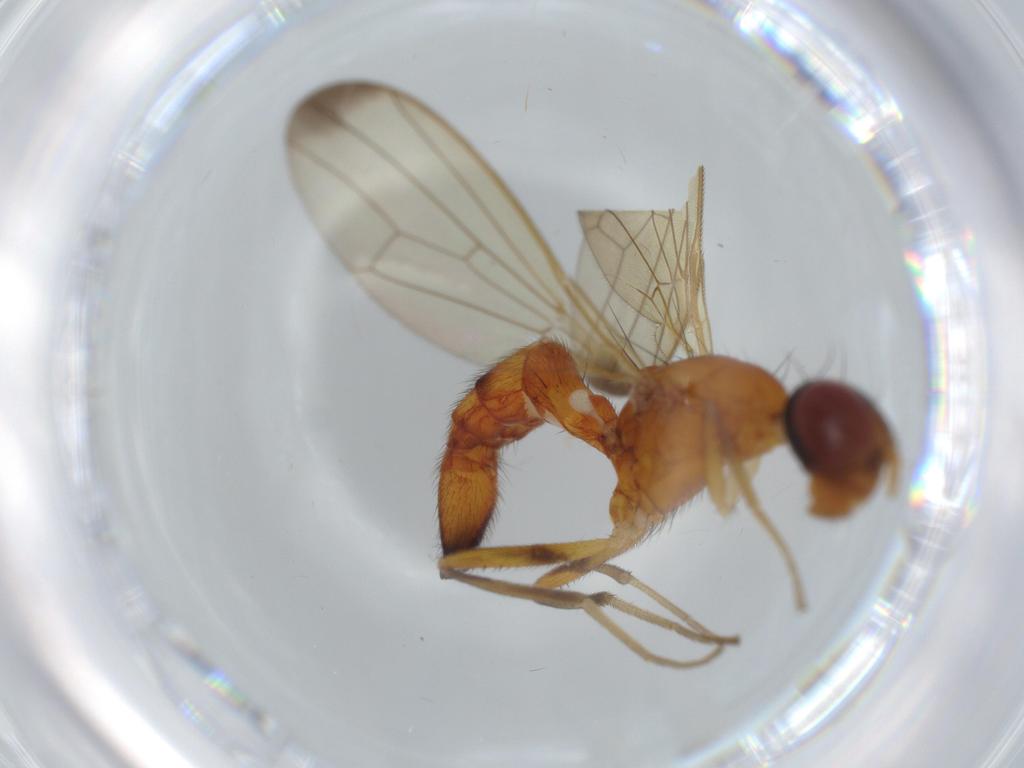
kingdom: Animalia
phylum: Arthropoda
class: Insecta
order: Diptera
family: Richardiidae
